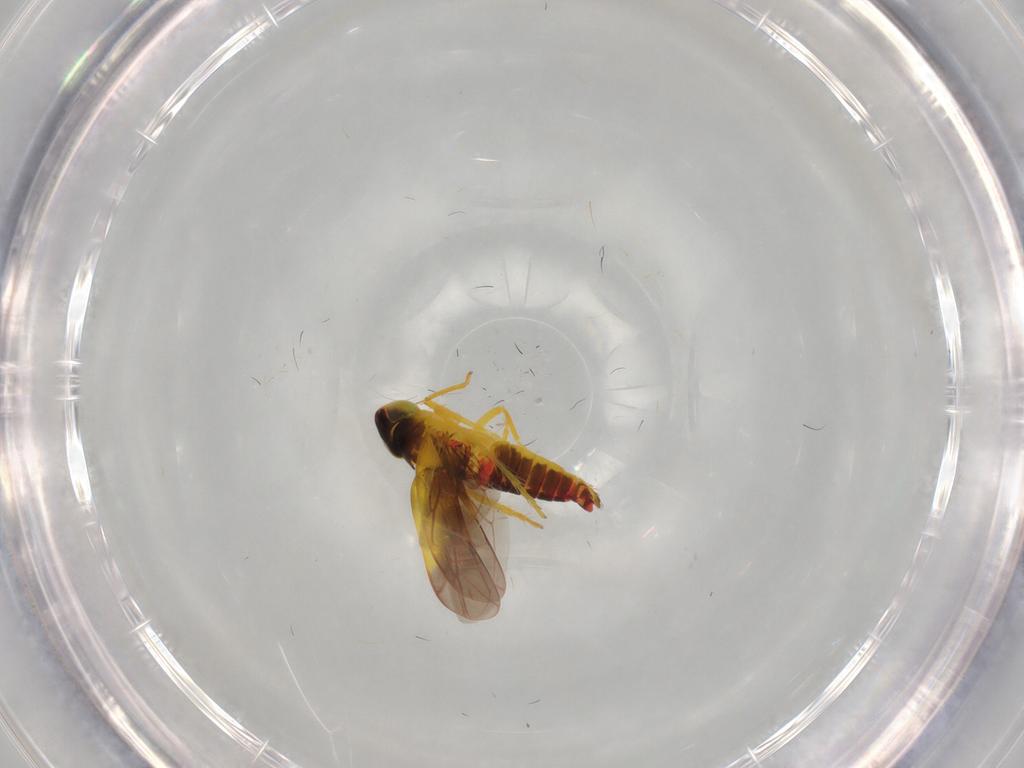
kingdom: Animalia
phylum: Arthropoda
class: Insecta
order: Hemiptera
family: Cicadellidae
